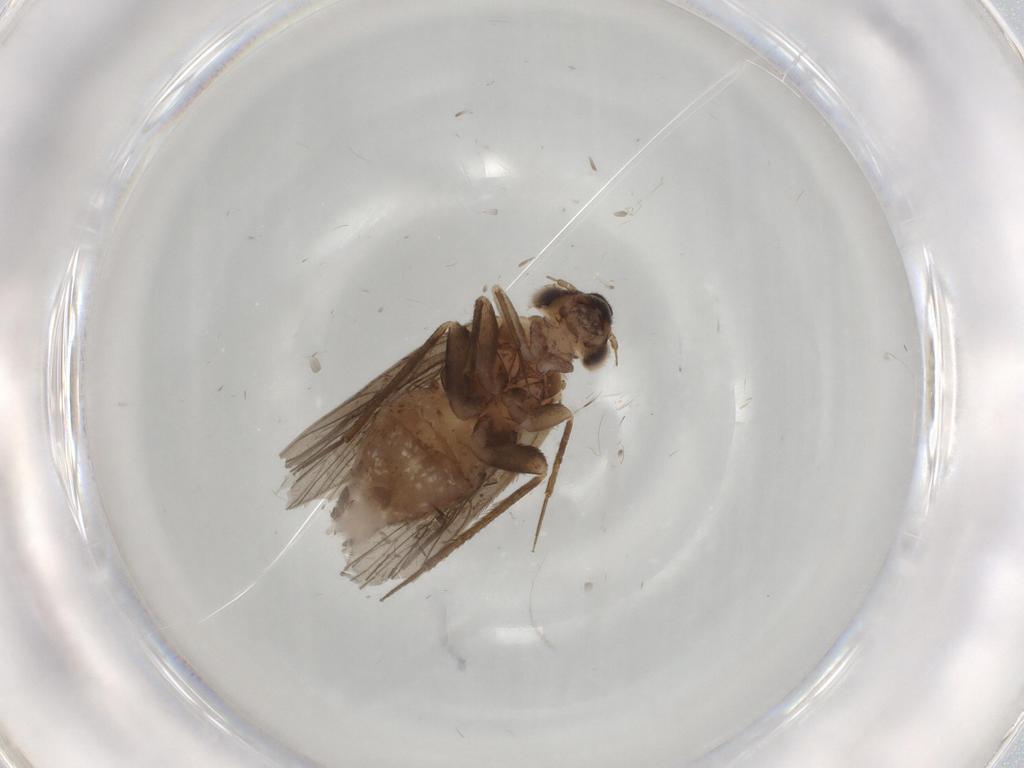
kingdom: Animalia
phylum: Arthropoda
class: Insecta
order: Psocodea
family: Lepidopsocidae
